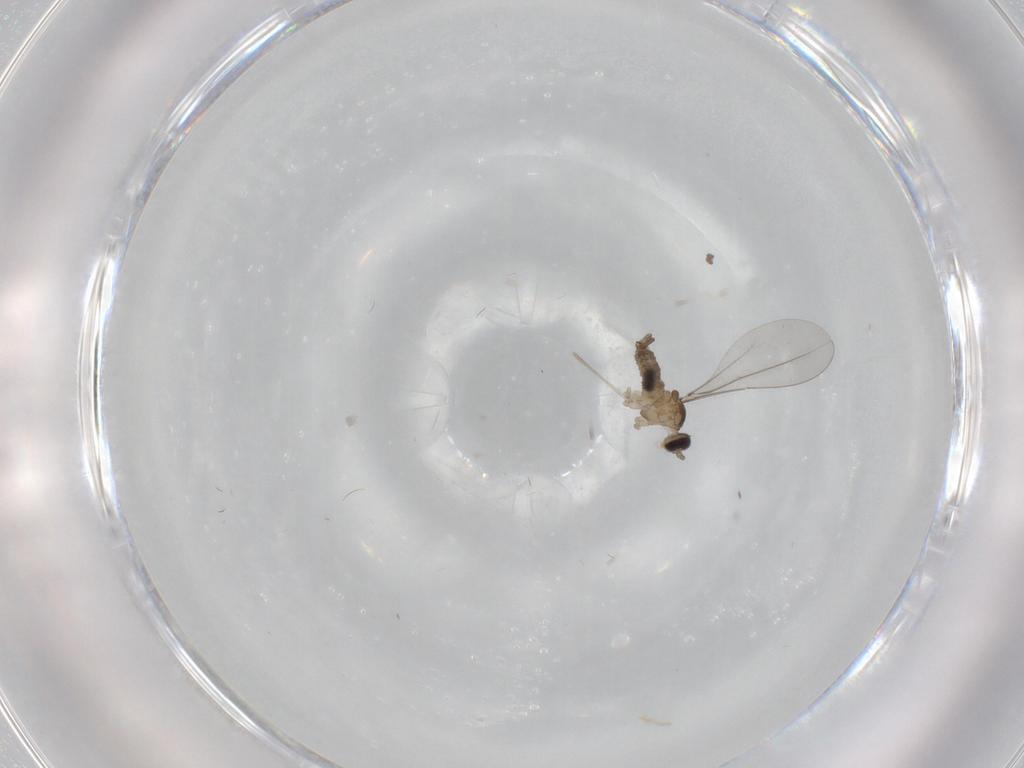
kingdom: Animalia
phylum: Arthropoda
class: Insecta
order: Diptera
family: Cecidomyiidae
